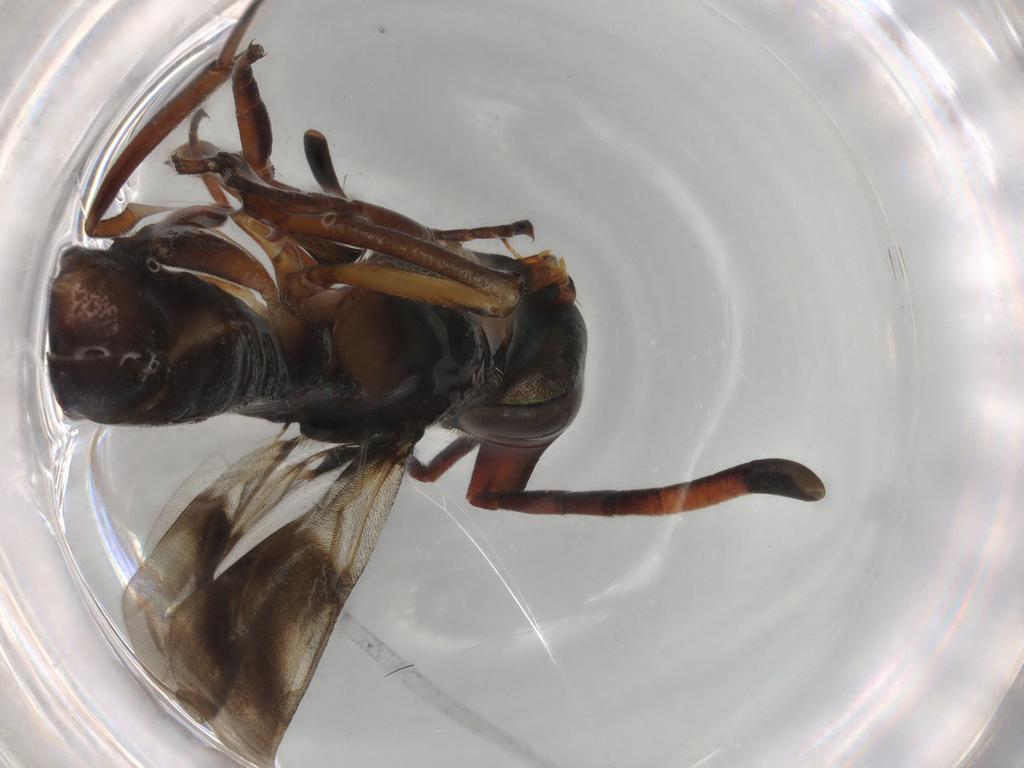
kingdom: Animalia
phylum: Arthropoda
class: Insecta
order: Hymenoptera
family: Eupelmidae
